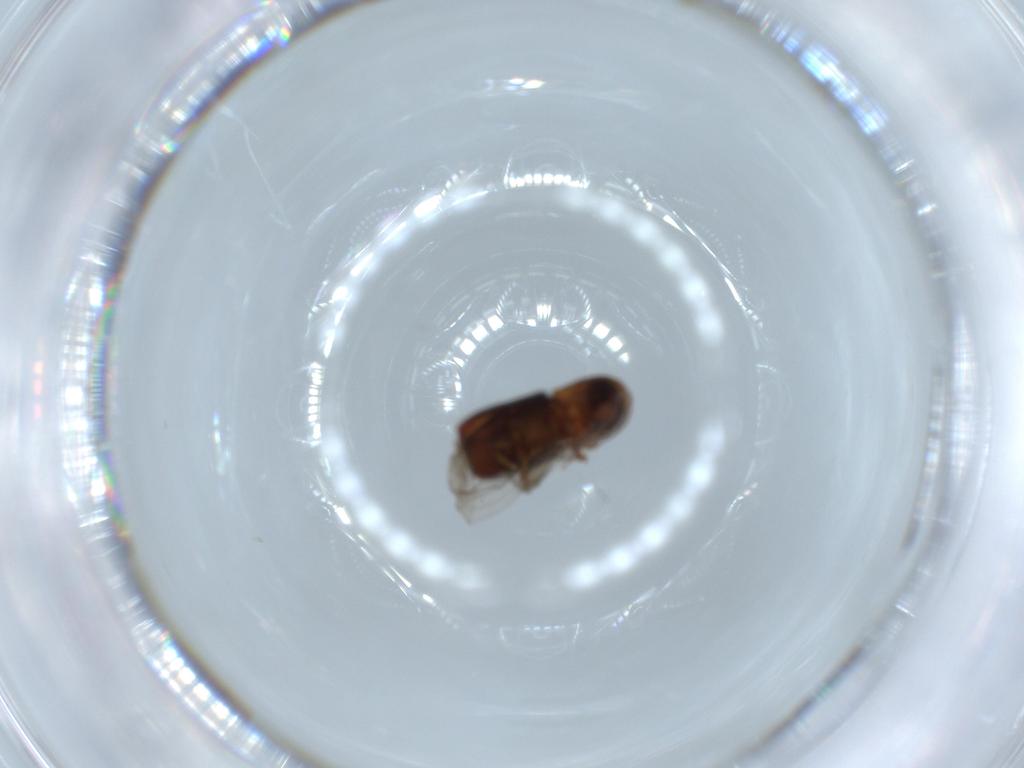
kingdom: Animalia
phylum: Arthropoda
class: Insecta
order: Coleoptera
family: Curculionidae
